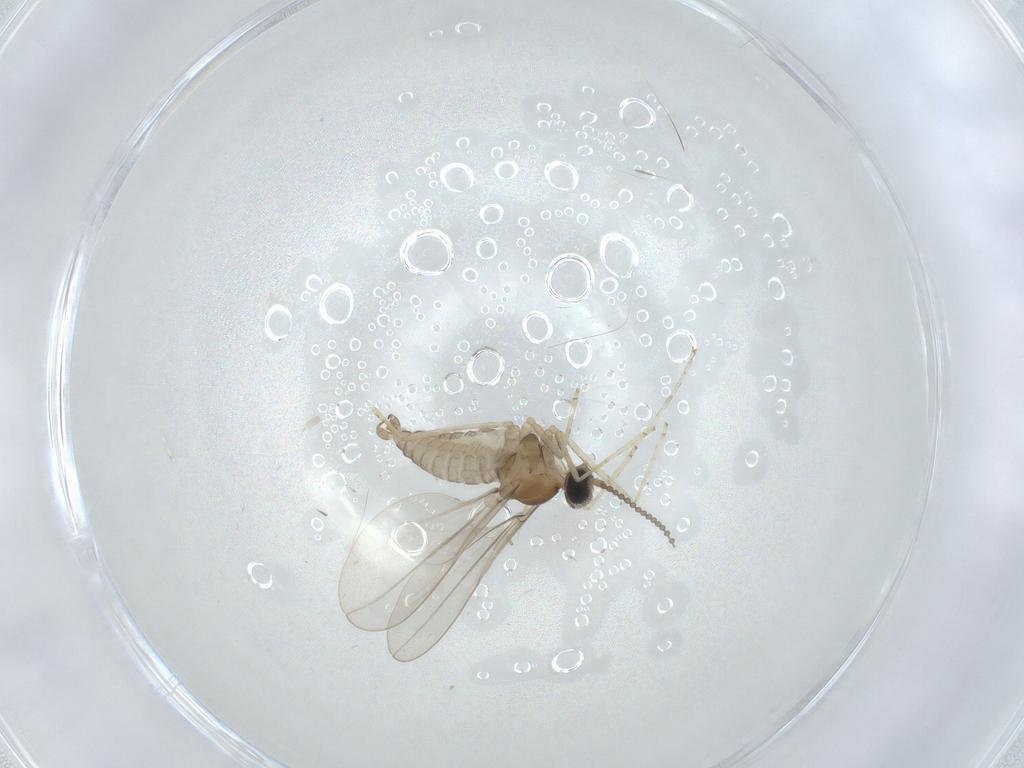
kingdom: Animalia
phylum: Arthropoda
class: Insecta
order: Diptera
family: Cecidomyiidae
